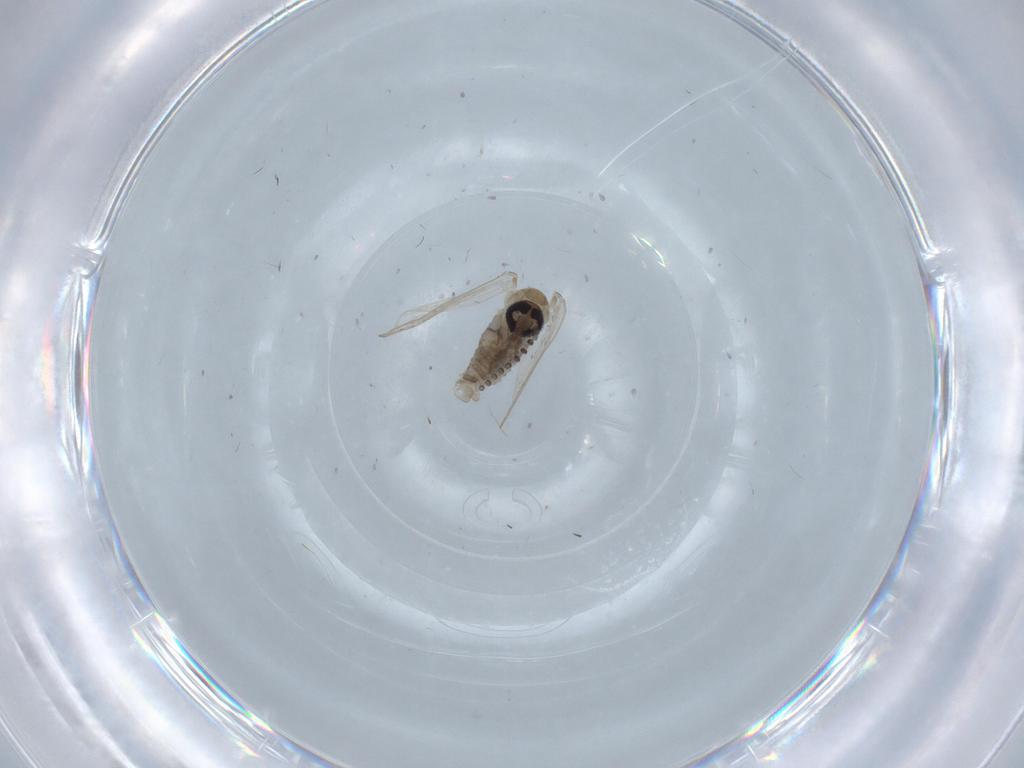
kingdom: Animalia
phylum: Arthropoda
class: Insecta
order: Diptera
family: Psychodidae
